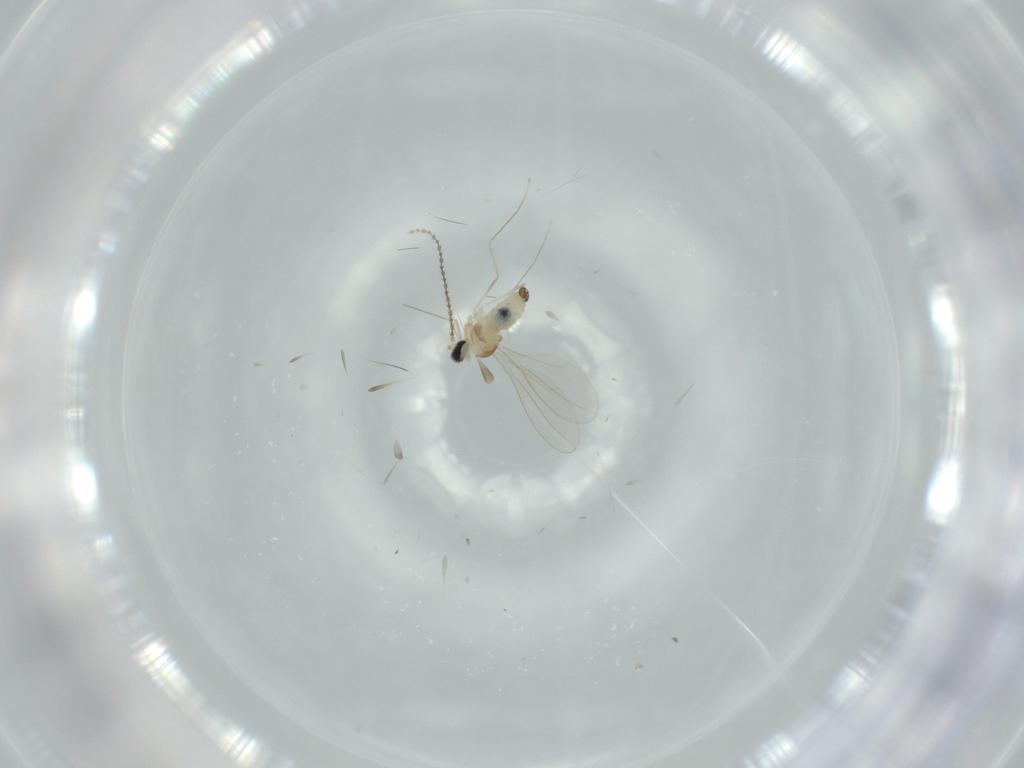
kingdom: Animalia
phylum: Arthropoda
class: Insecta
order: Diptera
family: Cecidomyiidae
